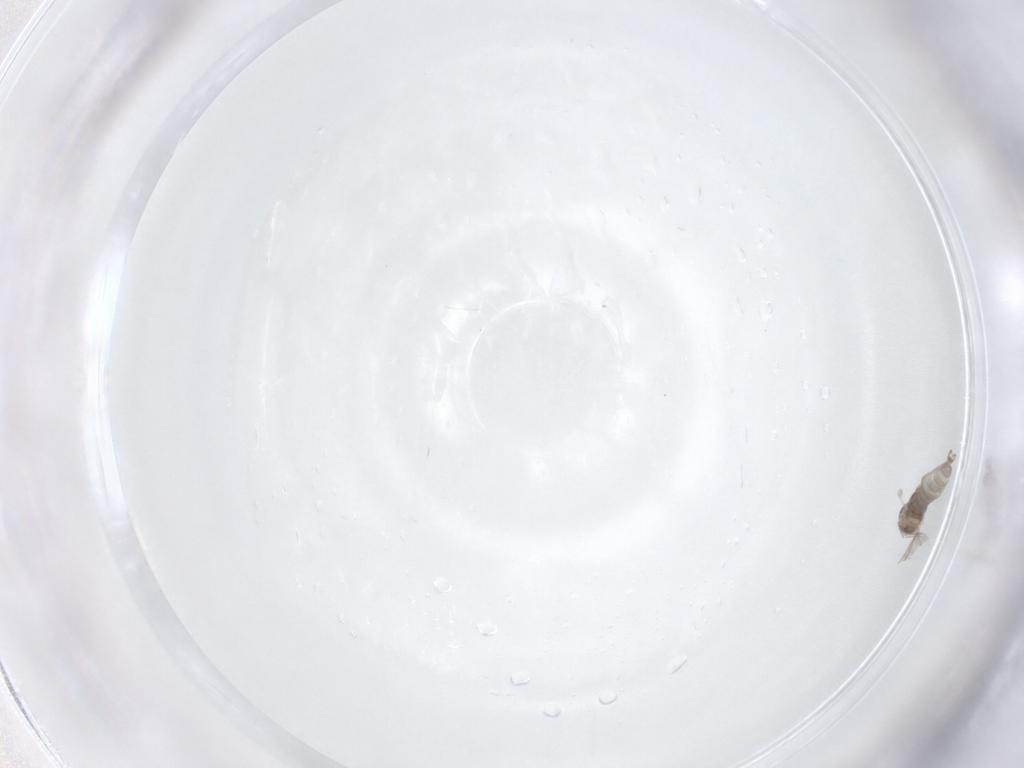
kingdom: Animalia
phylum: Arthropoda
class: Insecta
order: Diptera
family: Cecidomyiidae
